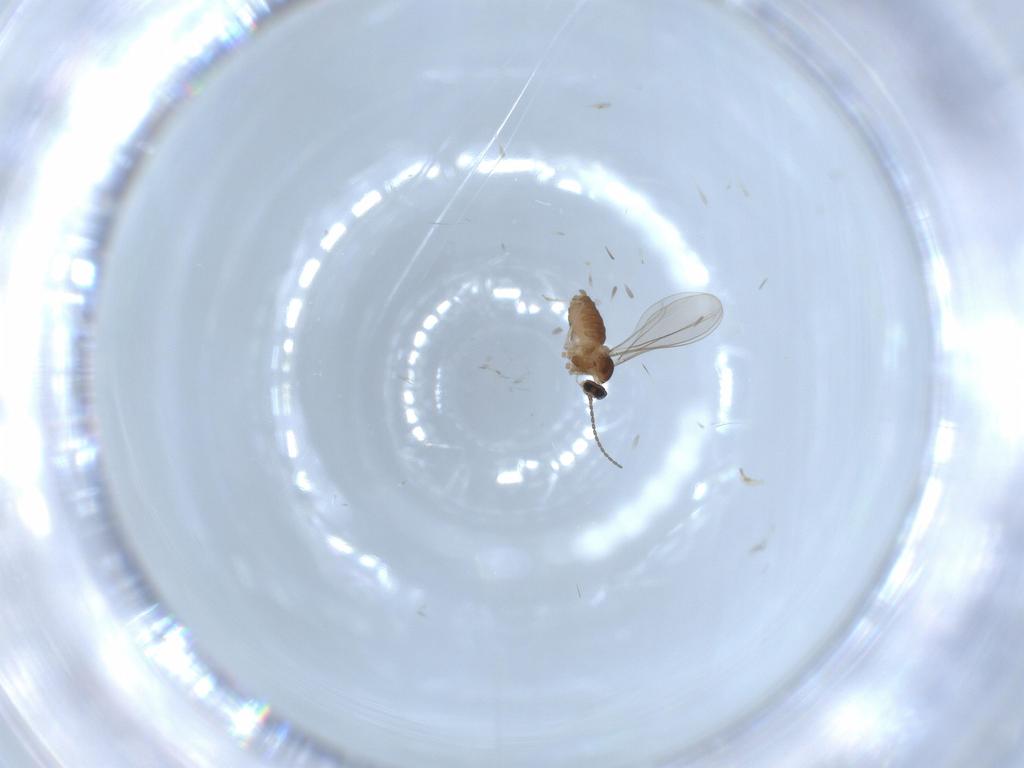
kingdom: Animalia
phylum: Arthropoda
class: Insecta
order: Diptera
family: Cecidomyiidae
